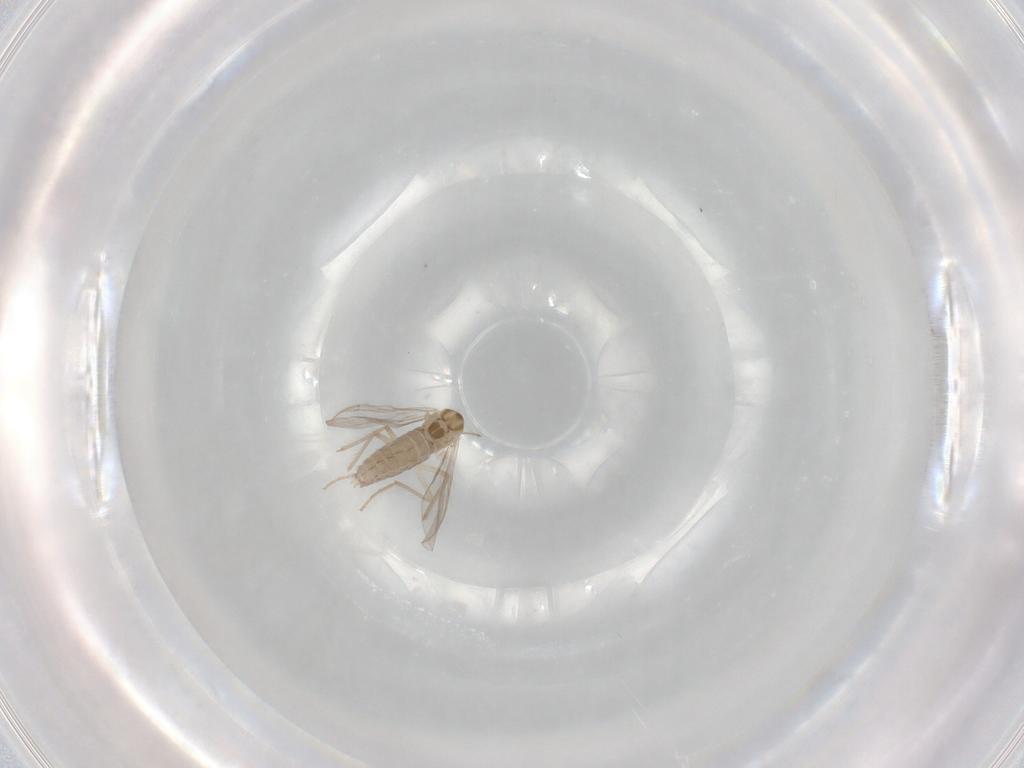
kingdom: Animalia
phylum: Arthropoda
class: Insecta
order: Diptera
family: Chironomidae
